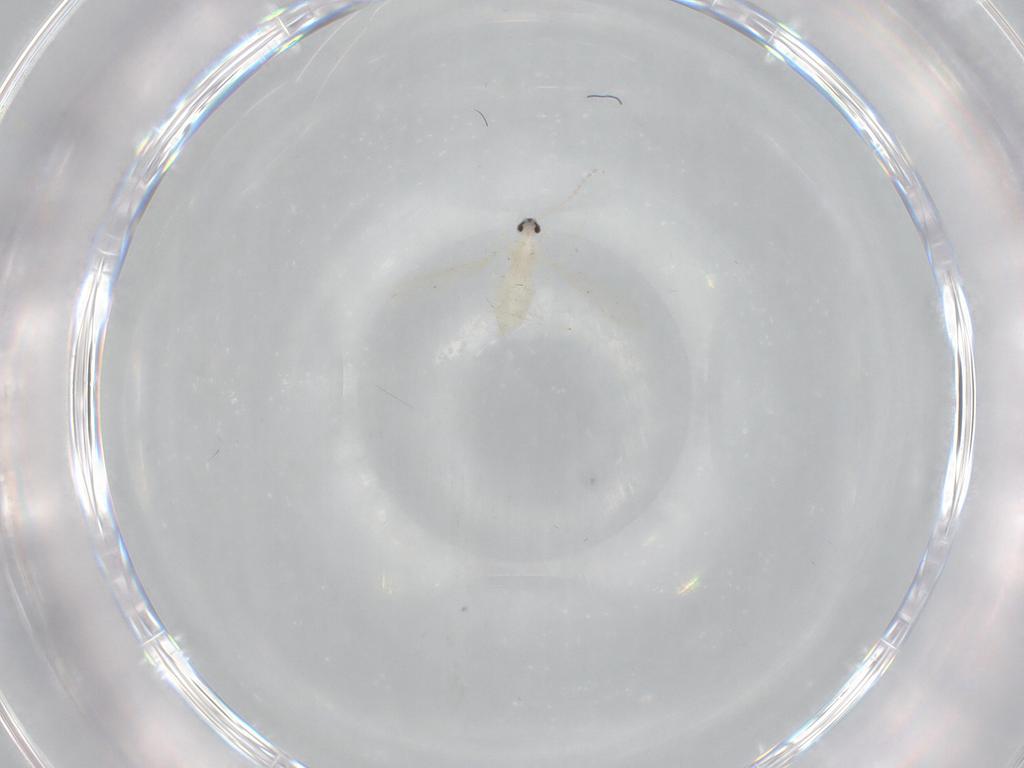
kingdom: Animalia
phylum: Arthropoda
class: Insecta
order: Diptera
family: Cecidomyiidae
